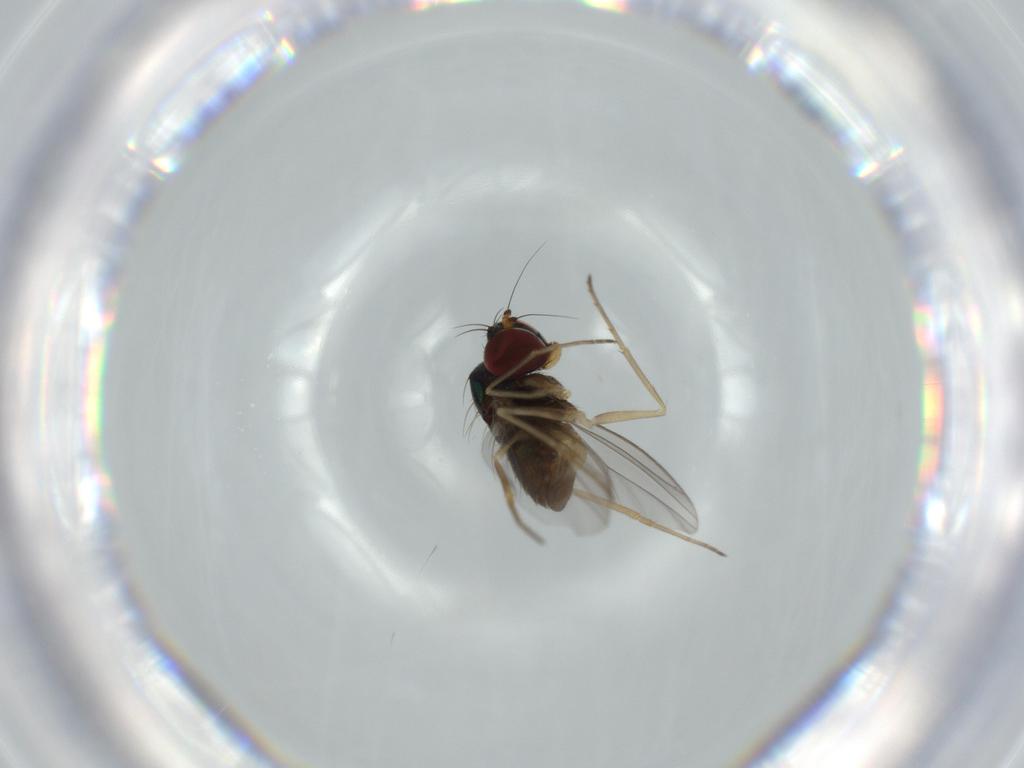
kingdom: Animalia
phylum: Arthropoda
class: Insecta
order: Diptera
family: Dolichopodidae
